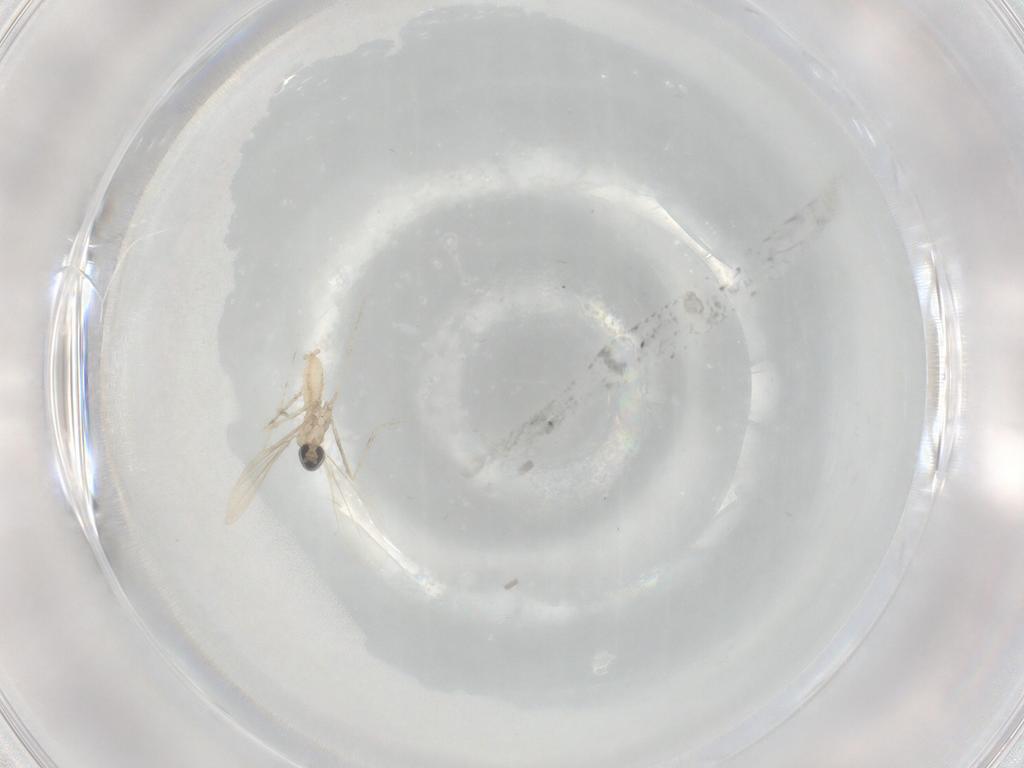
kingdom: Animalia
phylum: Arthropoda
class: Insecta
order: Diptera
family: Cecidomyiidae
